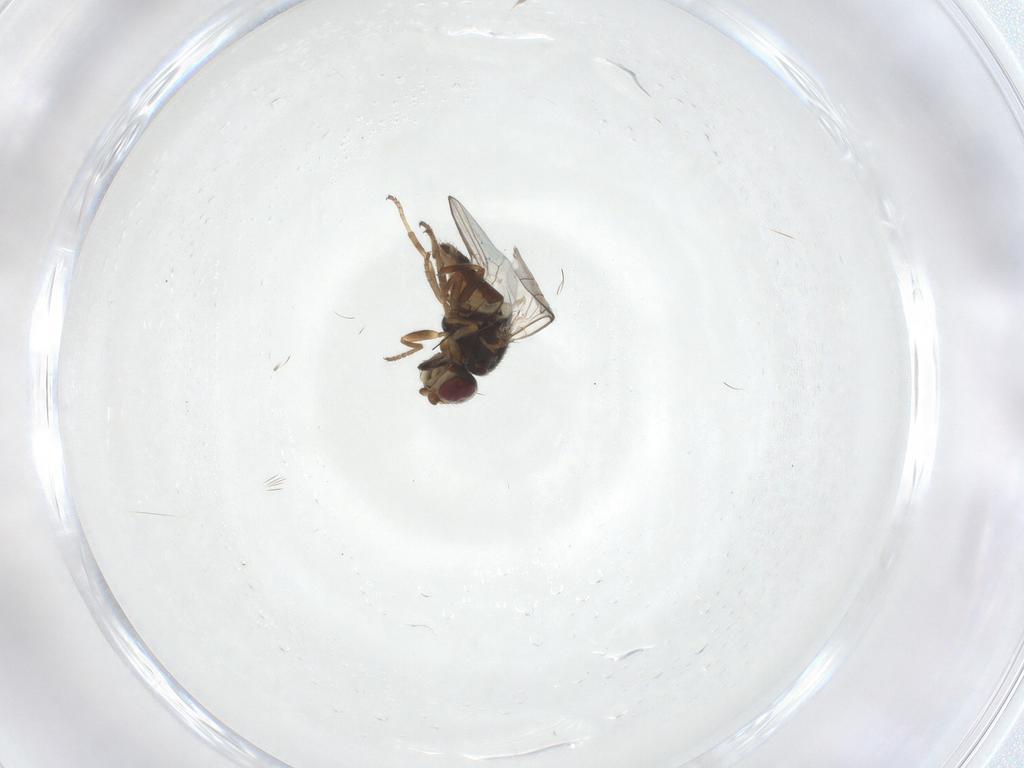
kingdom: Animalia
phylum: Arthropoda
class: Insecta
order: Diptera
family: Chloropidae
